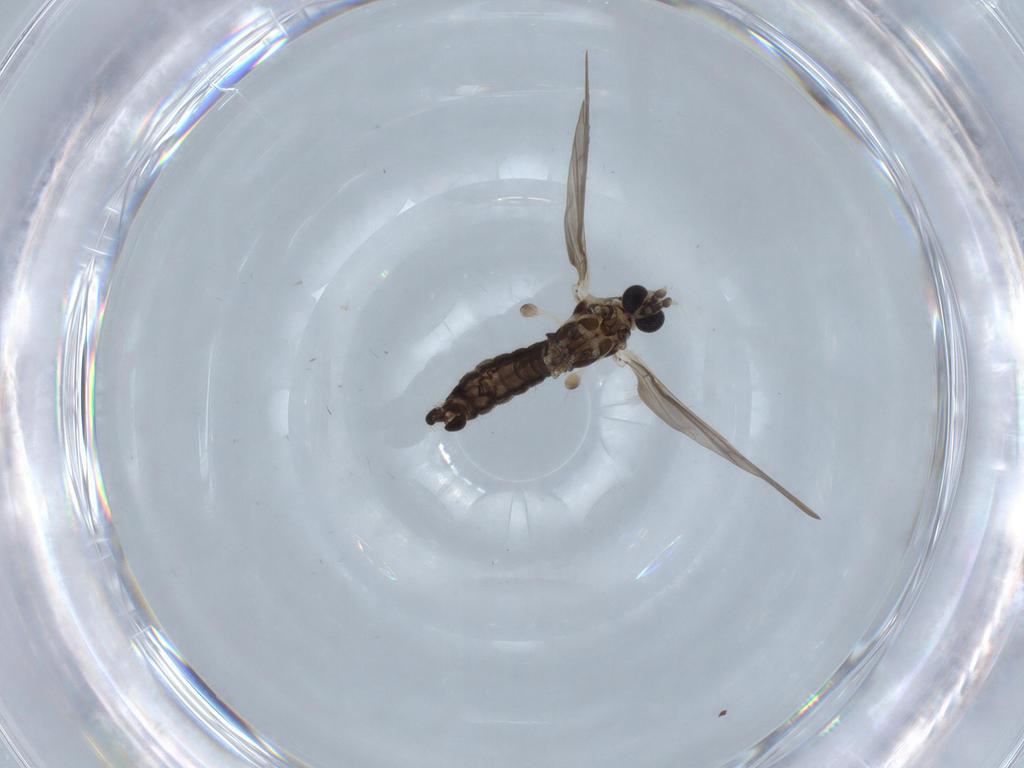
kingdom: Animalia
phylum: Arthropoda
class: Insecta
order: Diptera
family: Limoniidae
